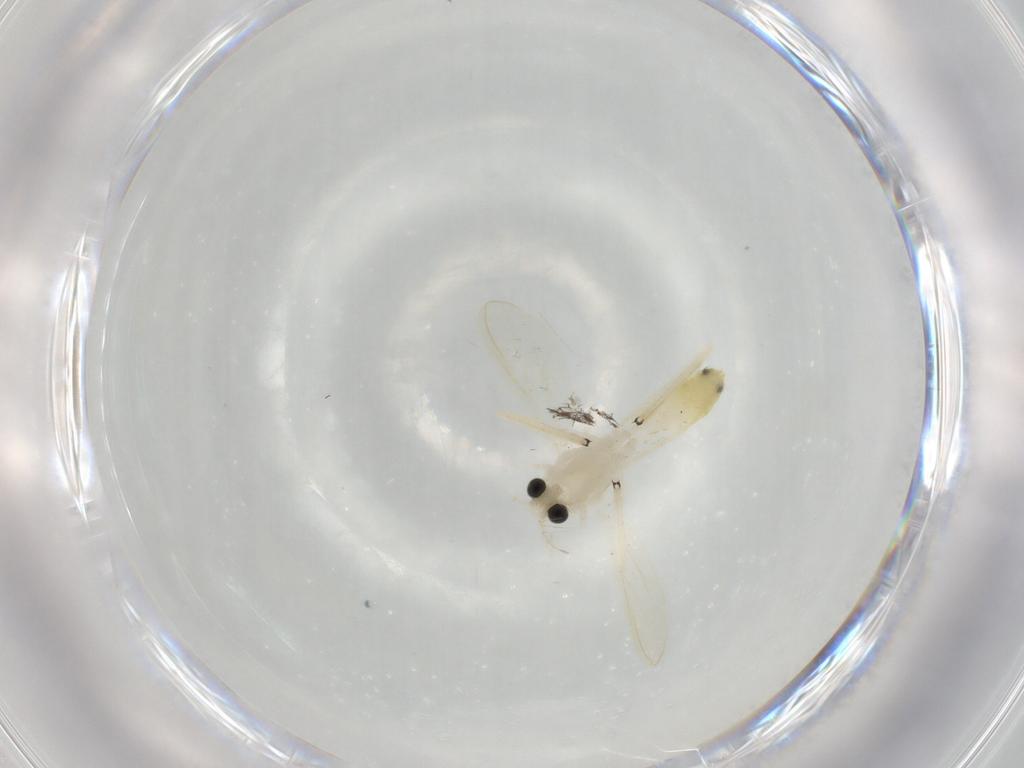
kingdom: Animalia
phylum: Arthropoda
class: Insecta
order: Diptera
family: Chironomidae
